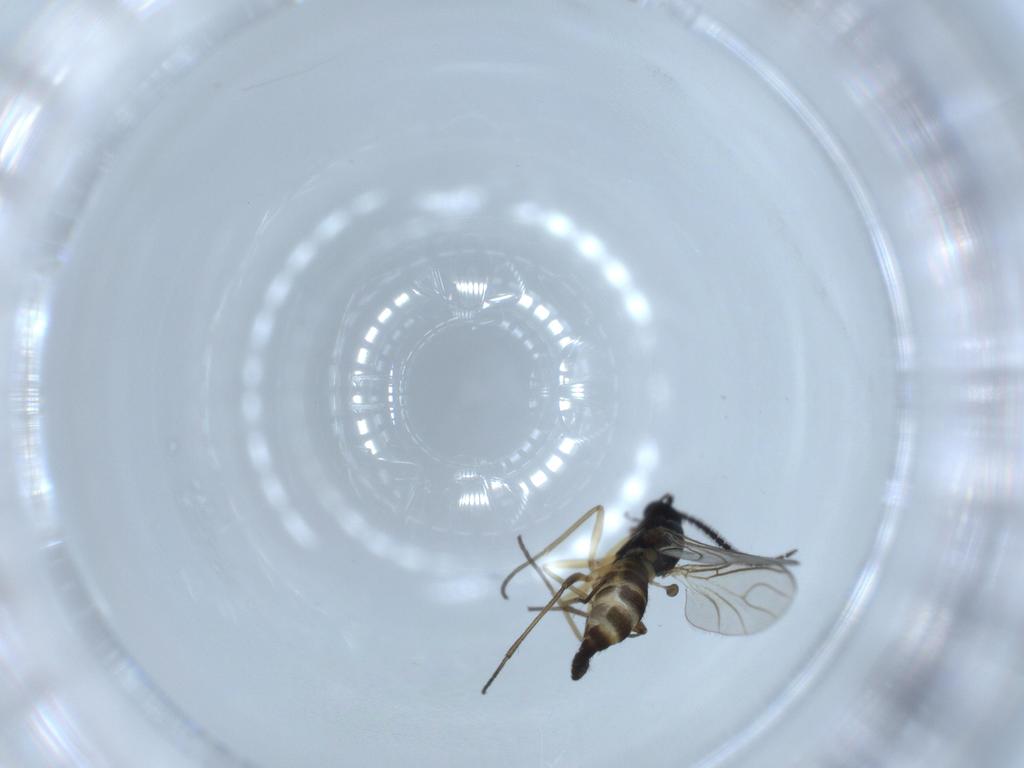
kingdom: Animalia
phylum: Arthropoda
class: Insecta
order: Diptera
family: Sciaridae
